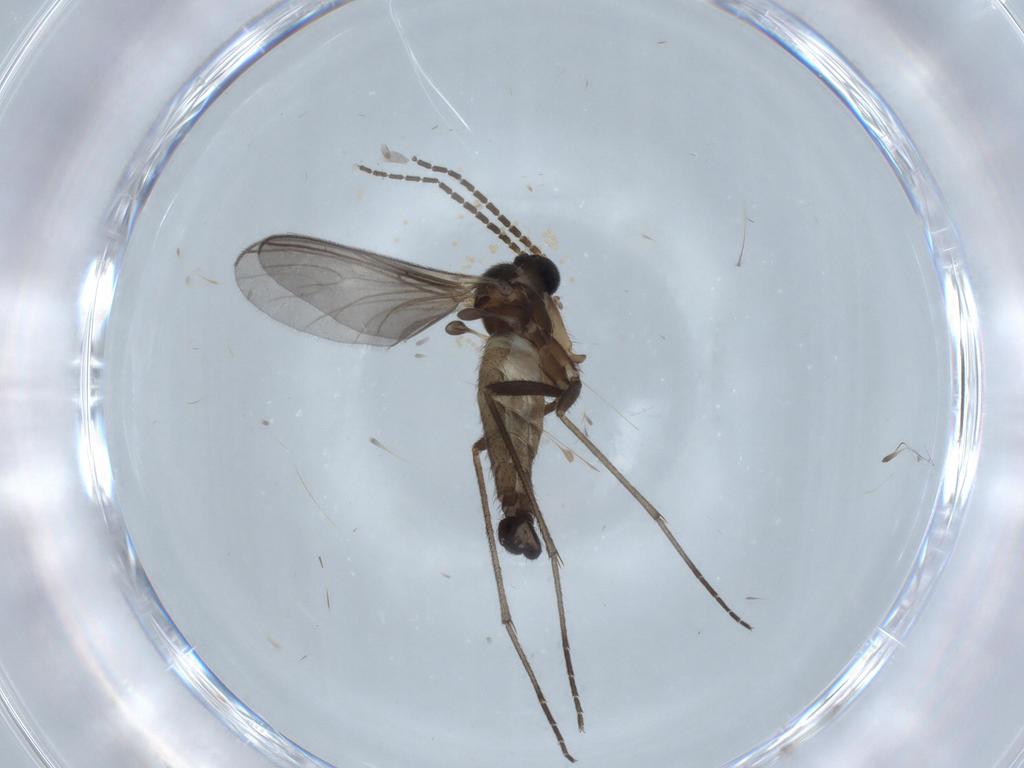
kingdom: Animalia
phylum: Arthropoda
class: Insecta
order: Diptera
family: Sciaridae
